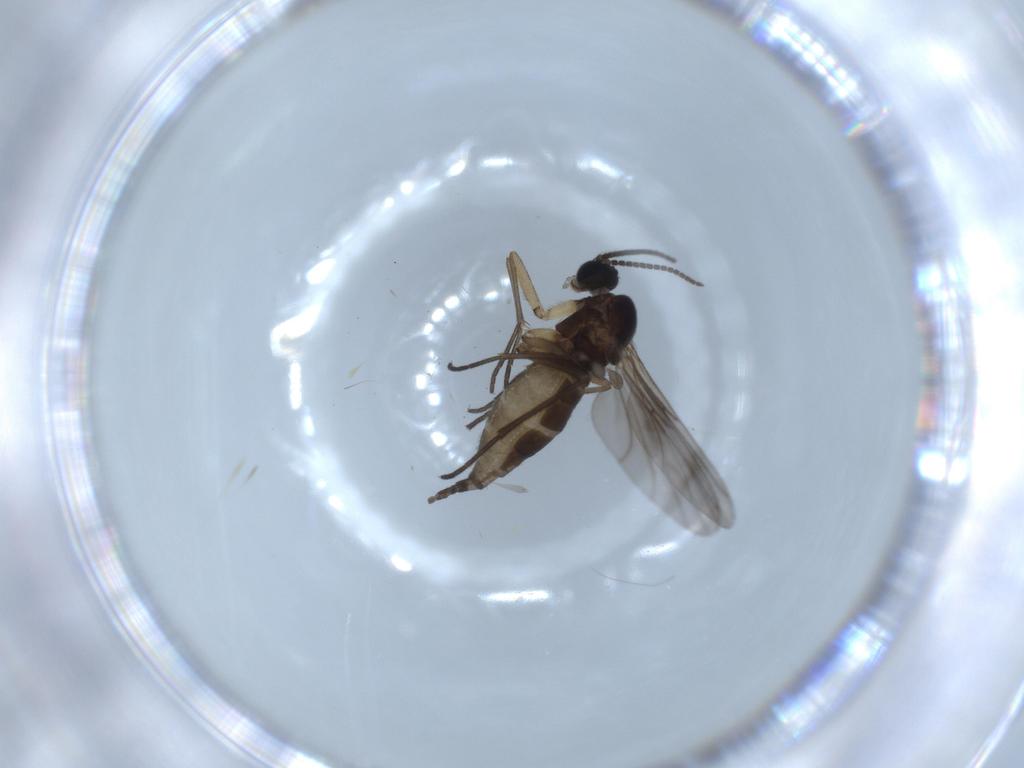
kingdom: Animalia
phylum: Arthropoda
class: Insecta
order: Diptera
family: Sciaridae
